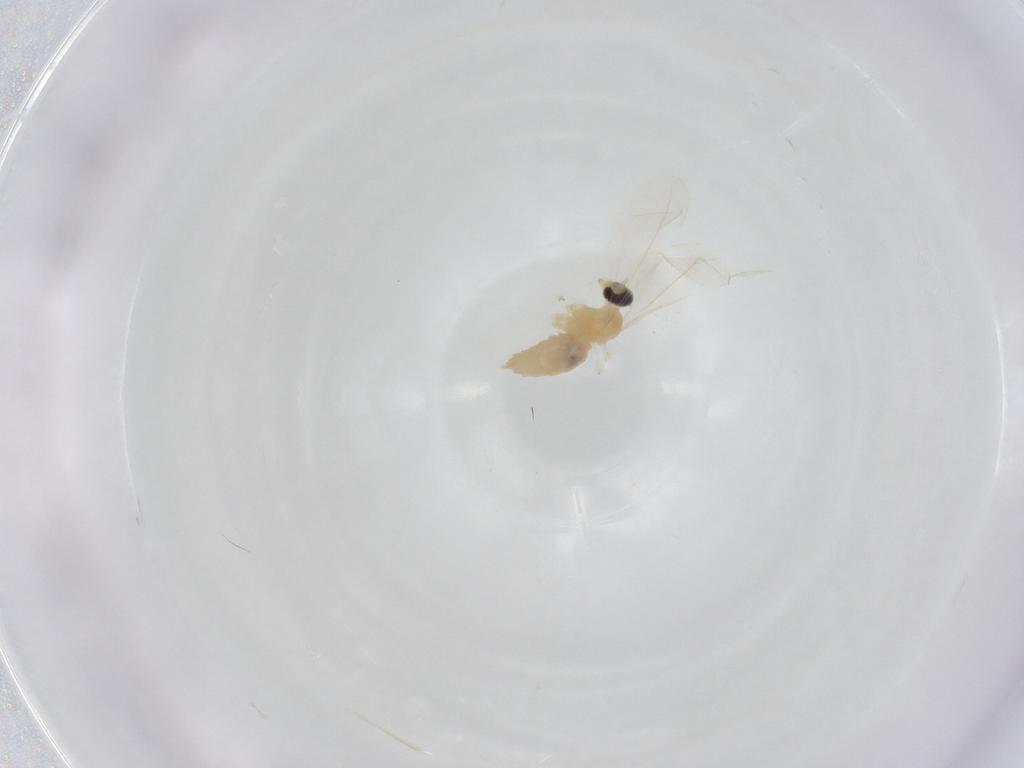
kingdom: Animalia
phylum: Arthropoda
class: Insecta
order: Diptera
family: Cecidomyiidae
